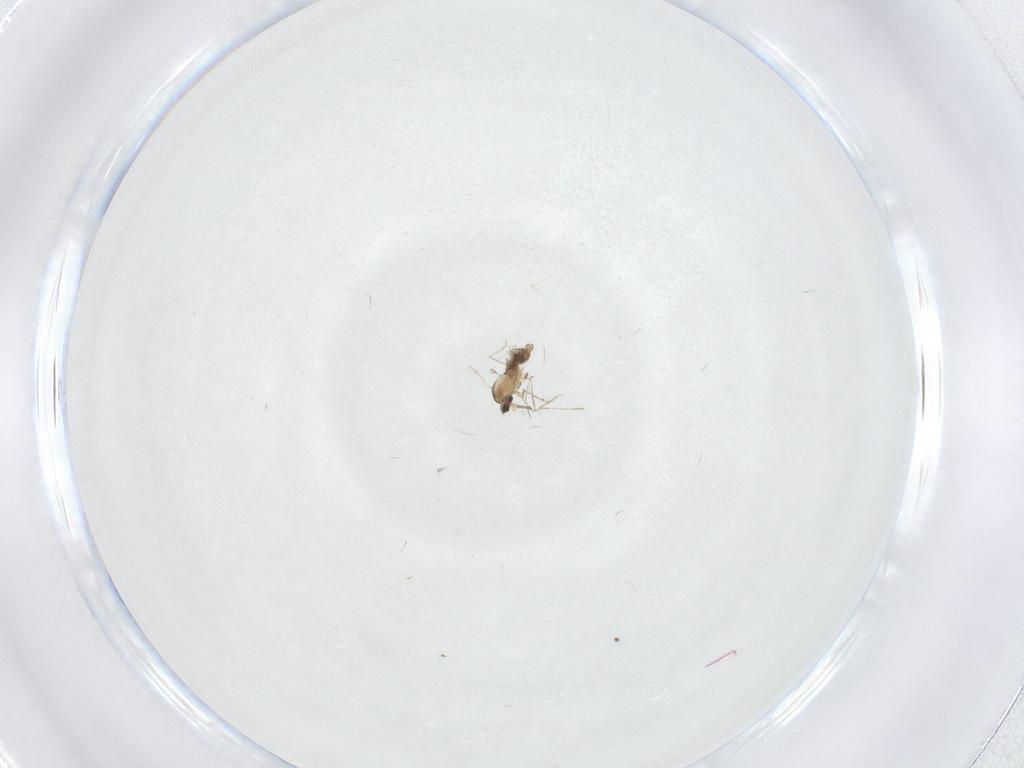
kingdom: Animalia
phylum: Arthropoda
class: Insecta
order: Diptera
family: Cecidomyiidae
